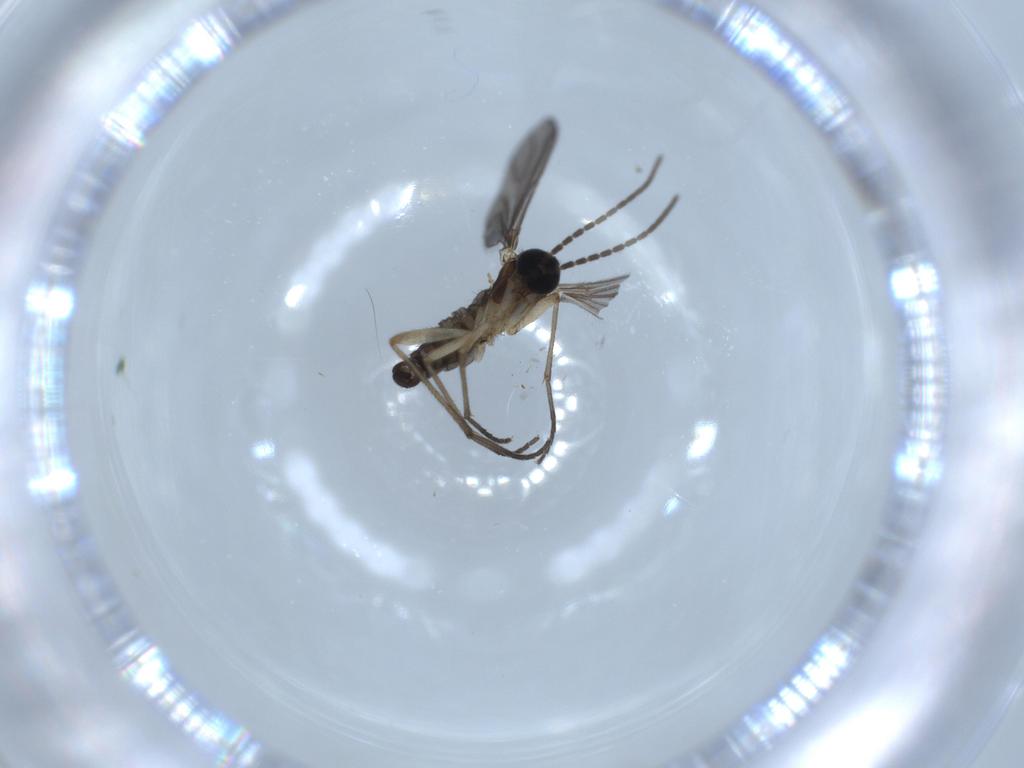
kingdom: Animalia
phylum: Arthropoda
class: Insecta
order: Diptera
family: Sciaridae
